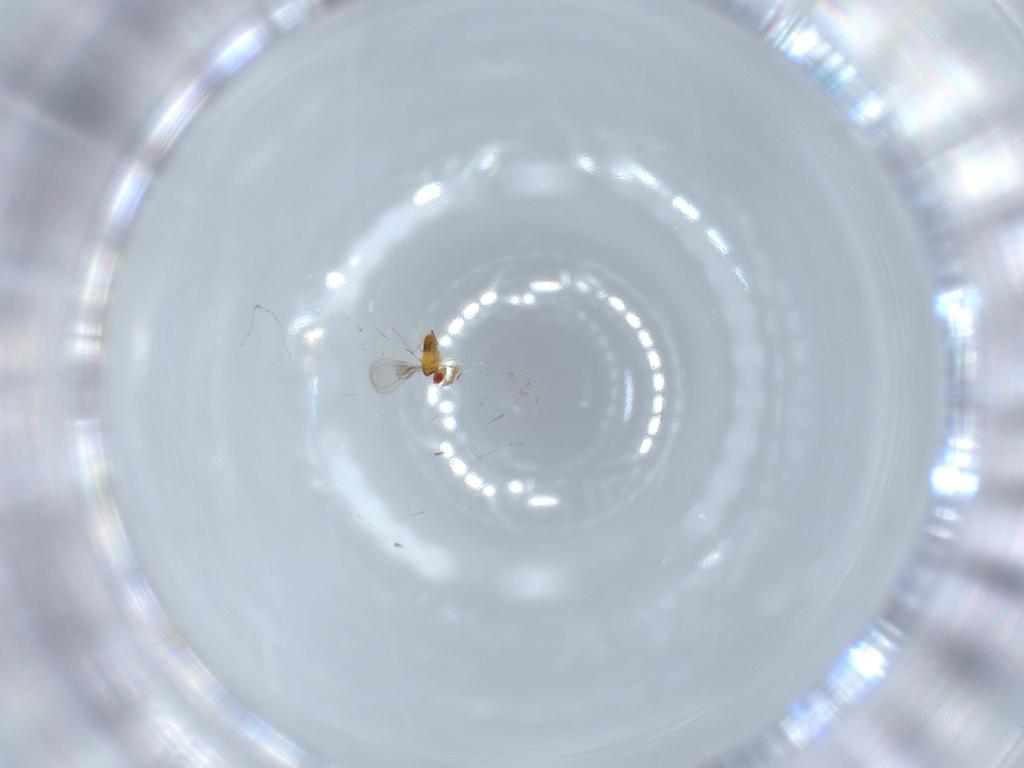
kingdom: Animalia
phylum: Arthropoda
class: Insecta
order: Hymenoptera
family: Trichogrammatidae
